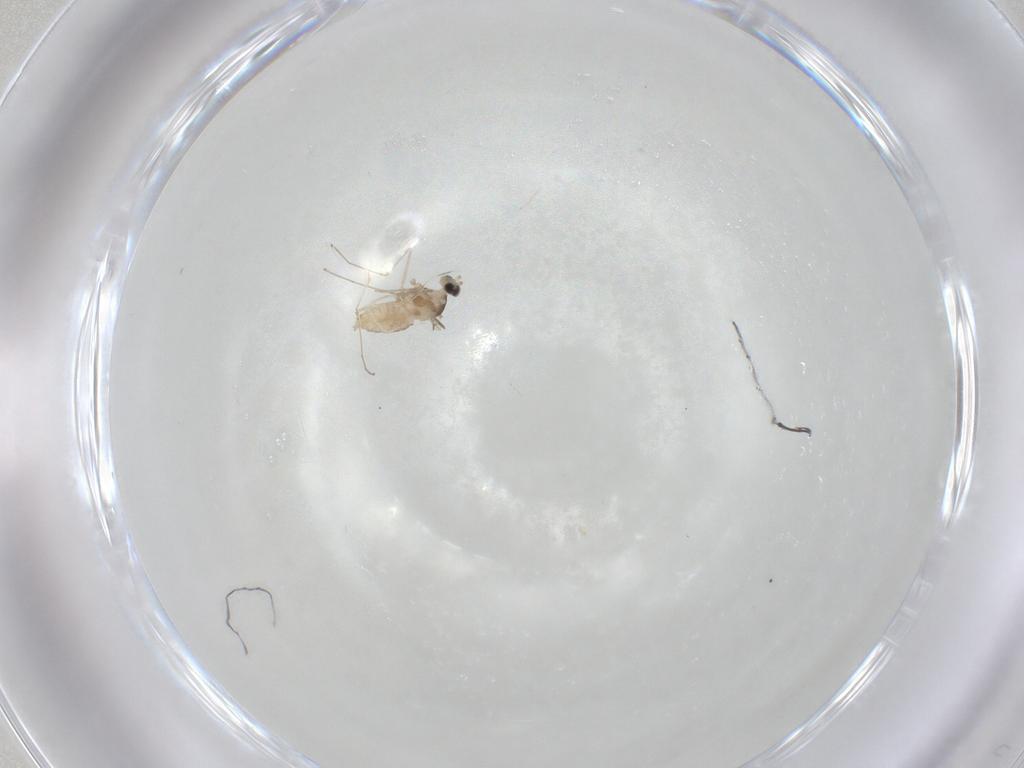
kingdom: Animalia
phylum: Arthropoda
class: Insecta
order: Diptera
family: Cecidomyiidae
